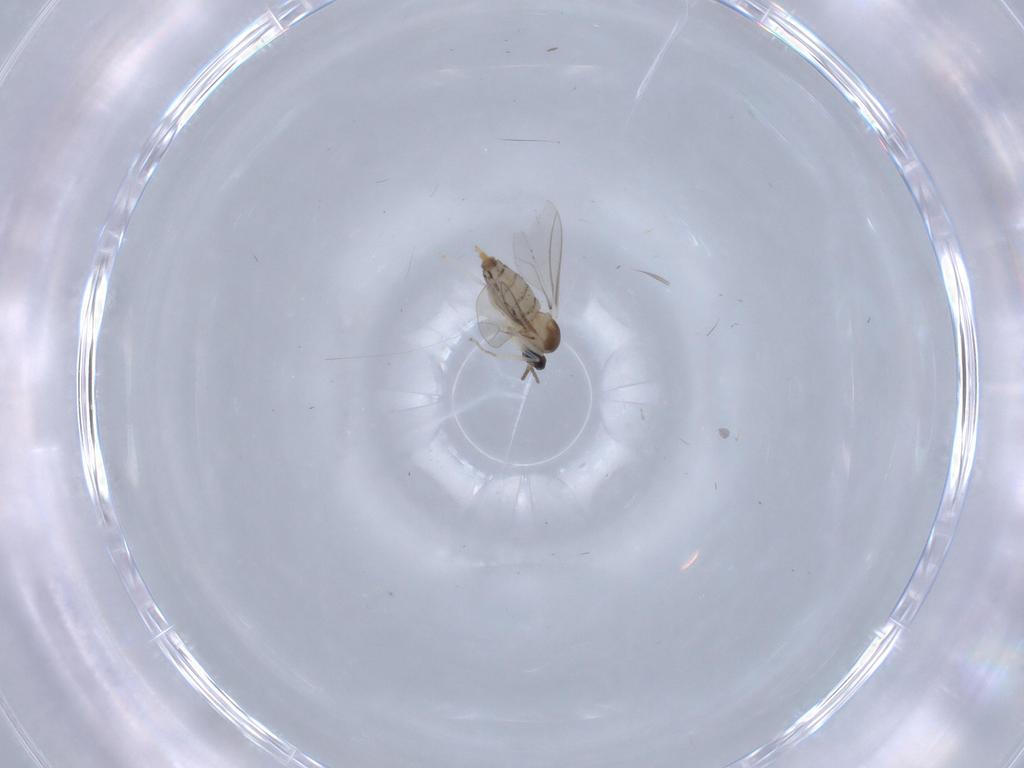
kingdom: Animalia
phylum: Arthropoda
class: Insecta
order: Diptera
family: Cecidomyiidae
